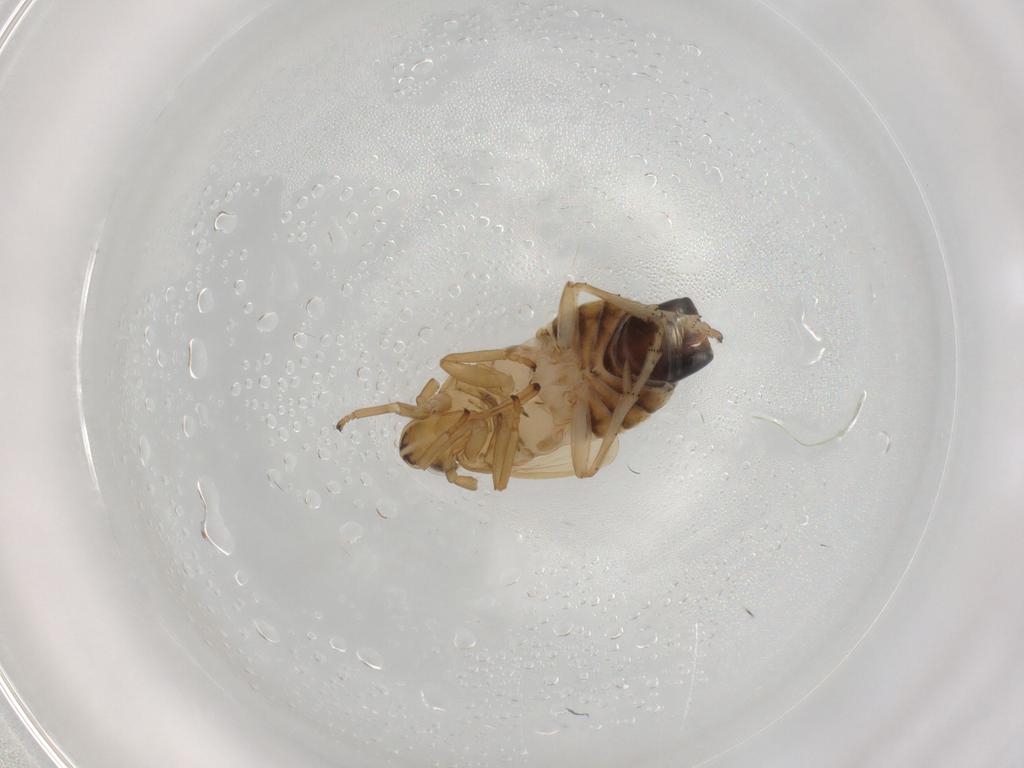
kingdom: Animalia
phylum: Arthropoda
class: Insecta
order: Hemiptera
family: Delphacidae
